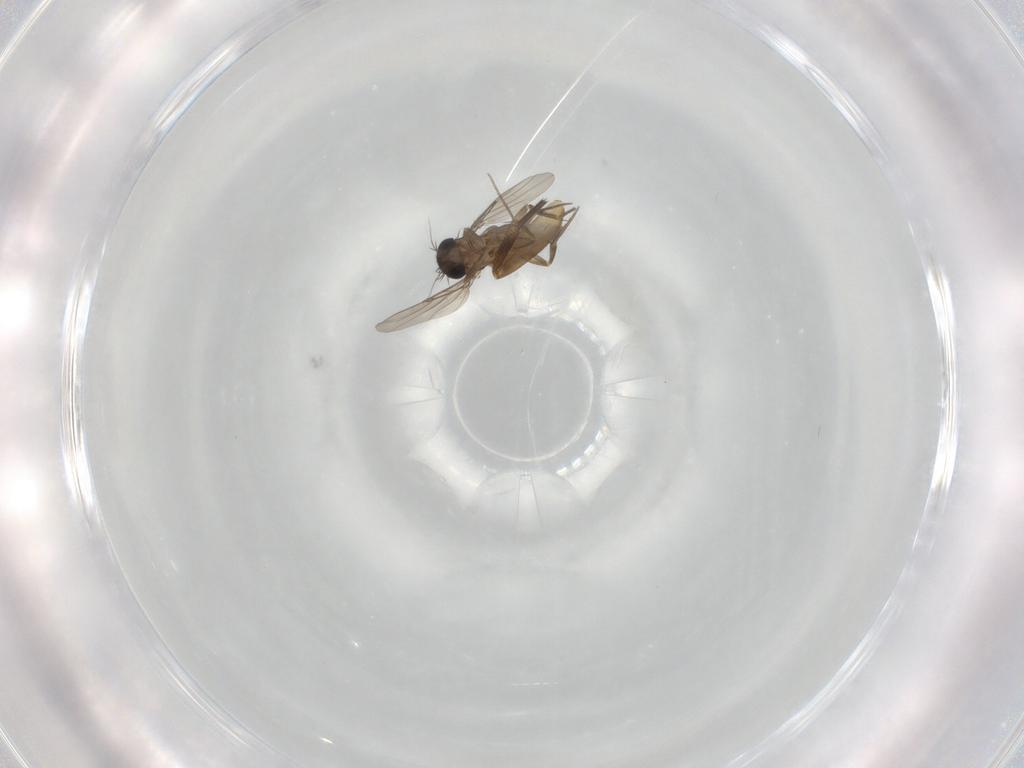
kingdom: Animalia
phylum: Arthropoda
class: Insecta
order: Diptera
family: Phoridae
